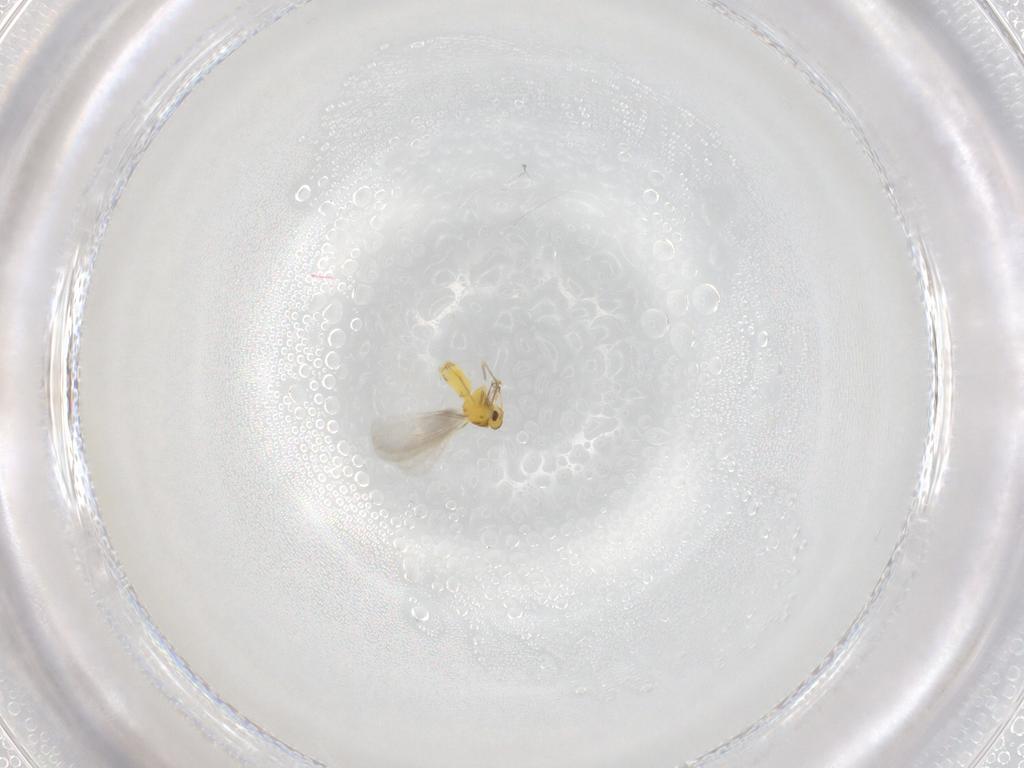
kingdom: Animalia
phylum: Arthropoda
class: Insecta
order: Hemiptera
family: Aleyrodidae
